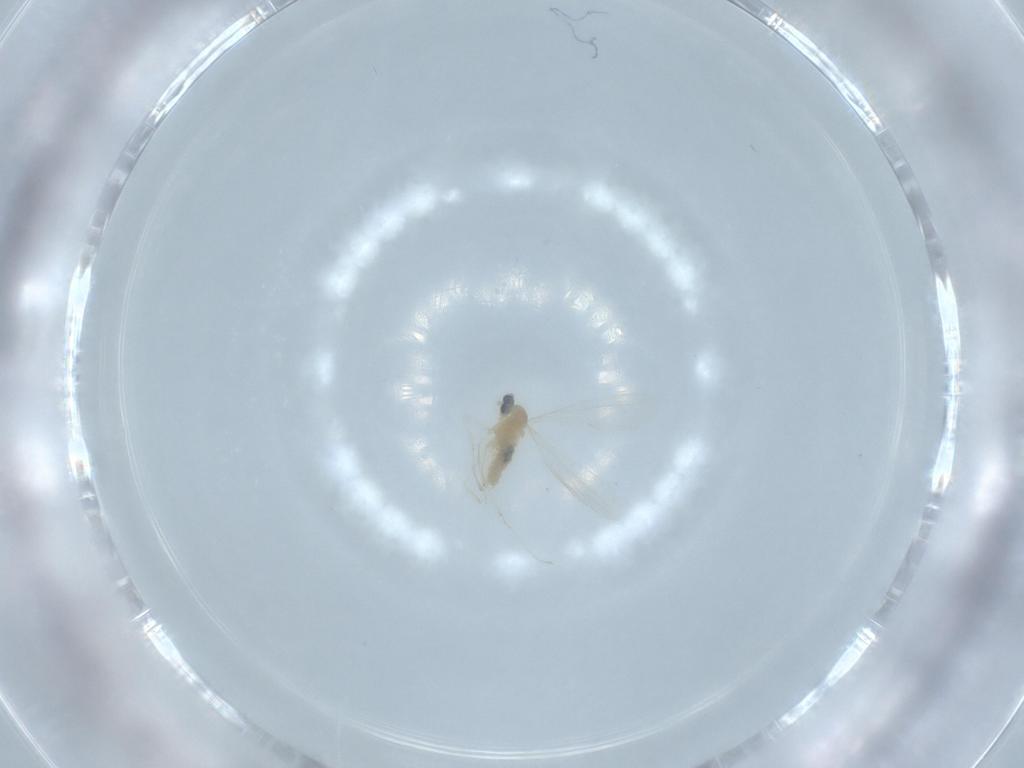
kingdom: Animalia
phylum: Arthropoda
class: Insecta
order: Diptera
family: Cecidomyiidae
